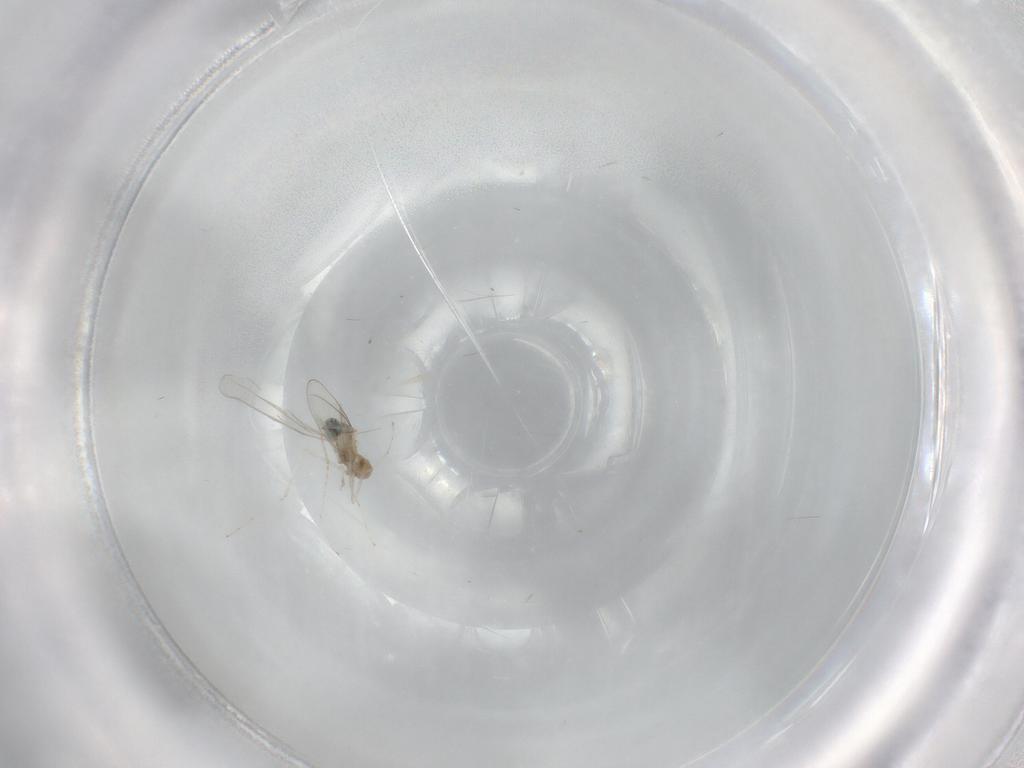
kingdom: Animalia
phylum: Arthropoda
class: Insecta
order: Diptera
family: Cecidomyiidae
